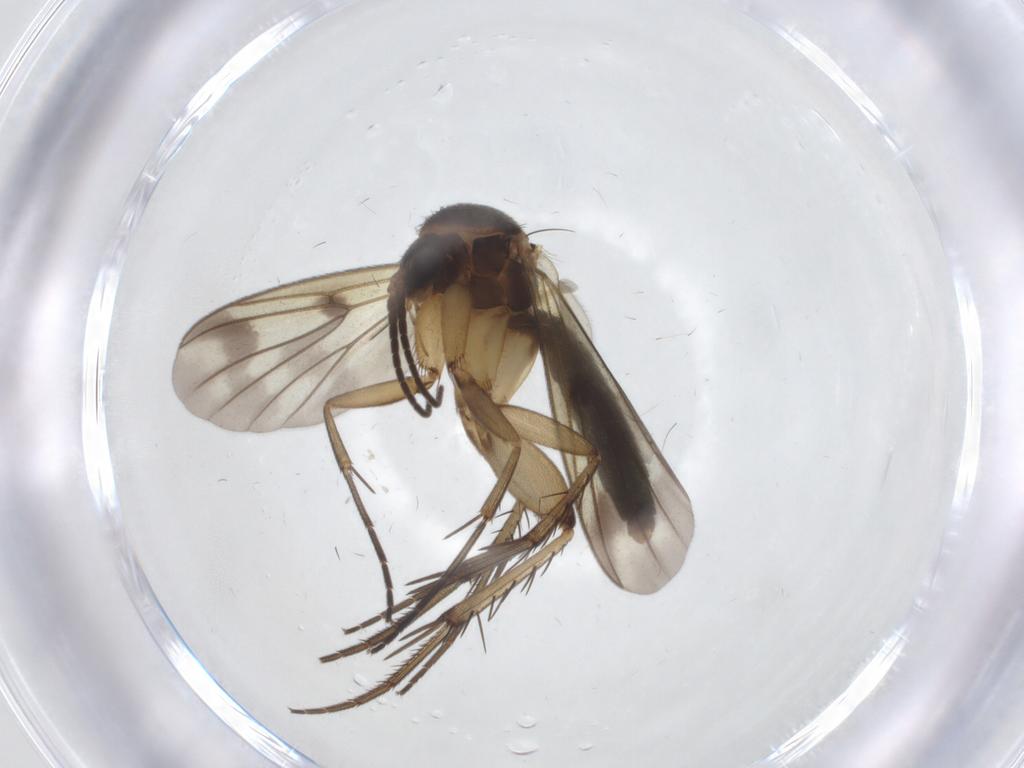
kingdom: Animalia
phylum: Arthropoda
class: Insecta
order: Diptera
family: Mycetophilidae
